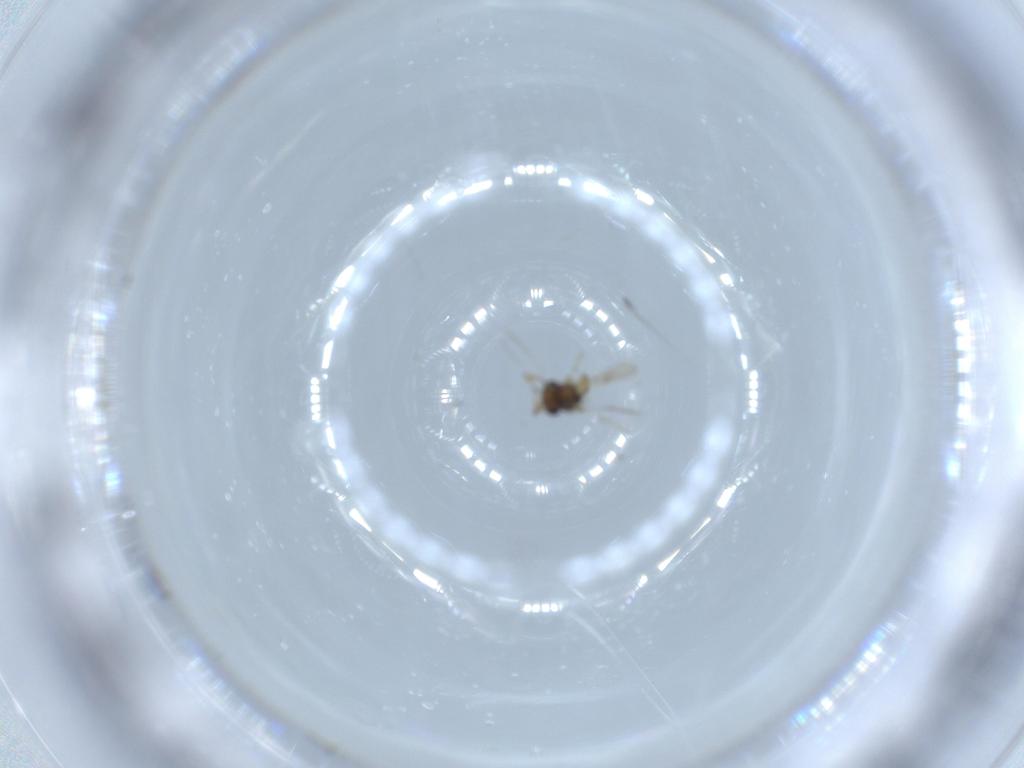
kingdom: Animalia
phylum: Arthropoda
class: Insecta
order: Hymenoptera
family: Scelionidae
